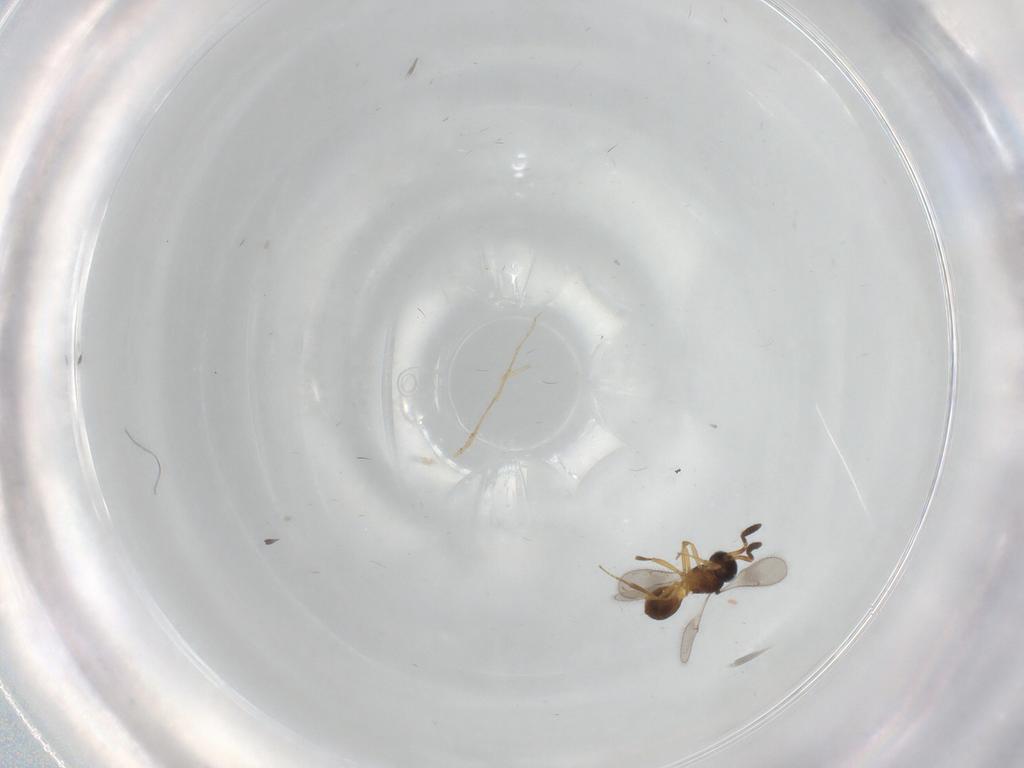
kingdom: Animalia
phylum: Arthropoda
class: Insecta
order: Hymenoptera
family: Scelionidae
